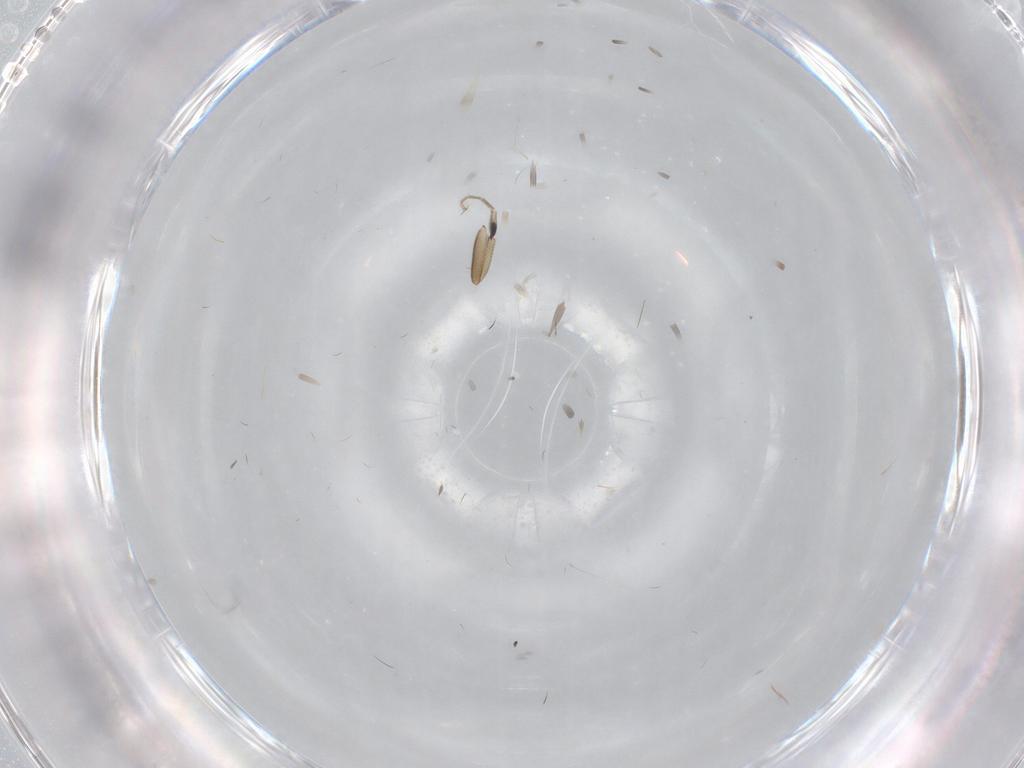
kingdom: Animalia
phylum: Arthropoda
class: Insecta
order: Diptera
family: Phoridae
